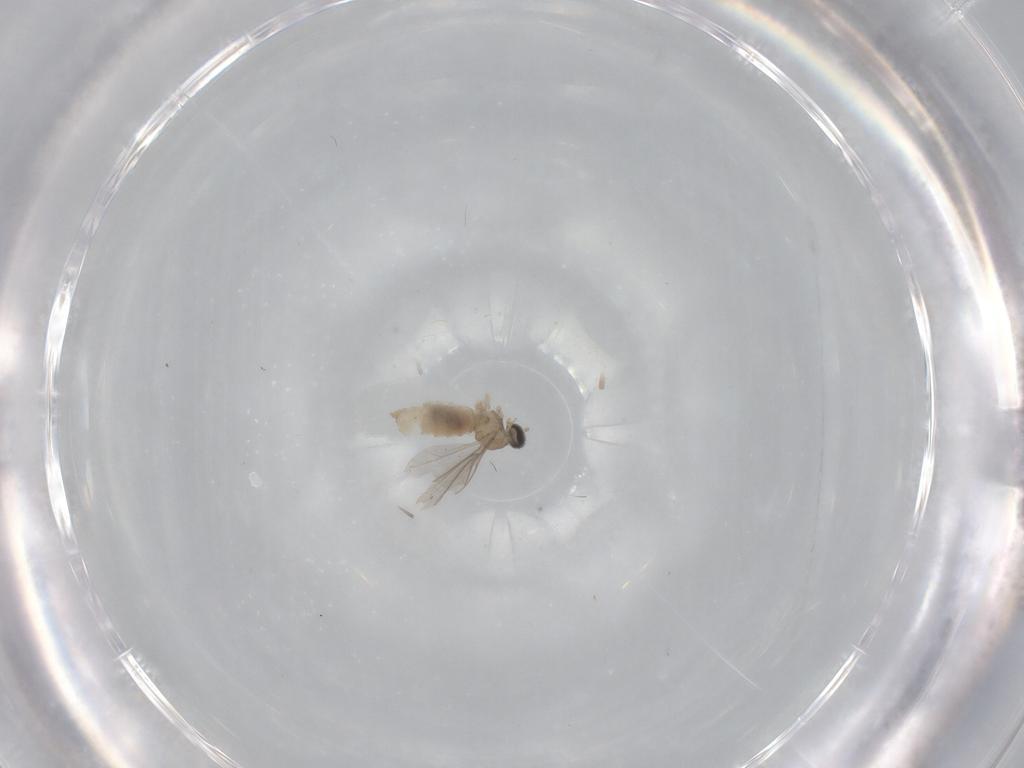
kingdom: Animalia
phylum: Arthropoda
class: Insecta
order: Diptera
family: Cecidomyiidae
